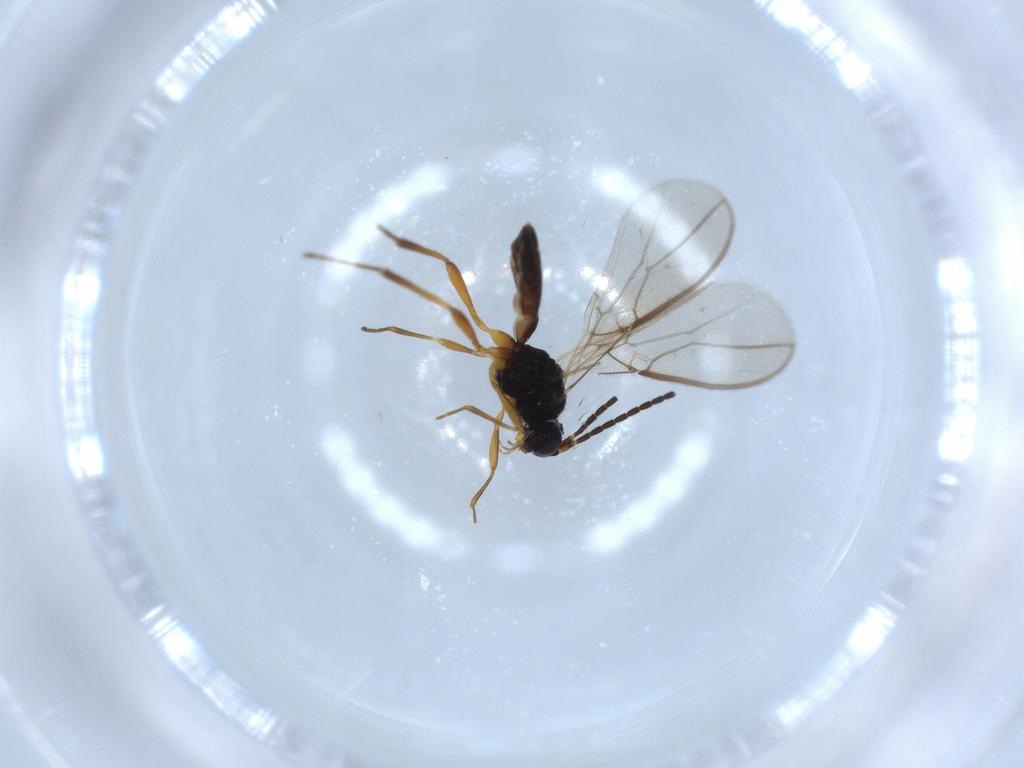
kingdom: Animalia
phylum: Arthropoda
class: Insecta
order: Hymenoptera
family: Braconidae
